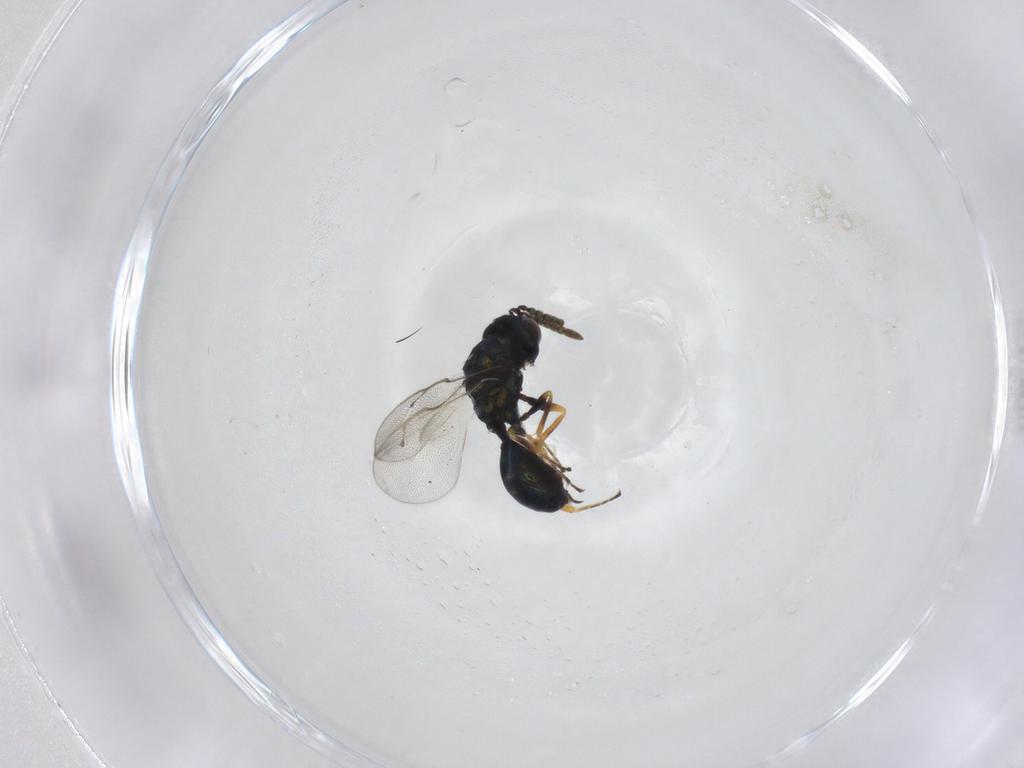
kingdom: Animalia
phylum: Arthropoda
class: Insecta
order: Hymenoptera
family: Pteromalidae
